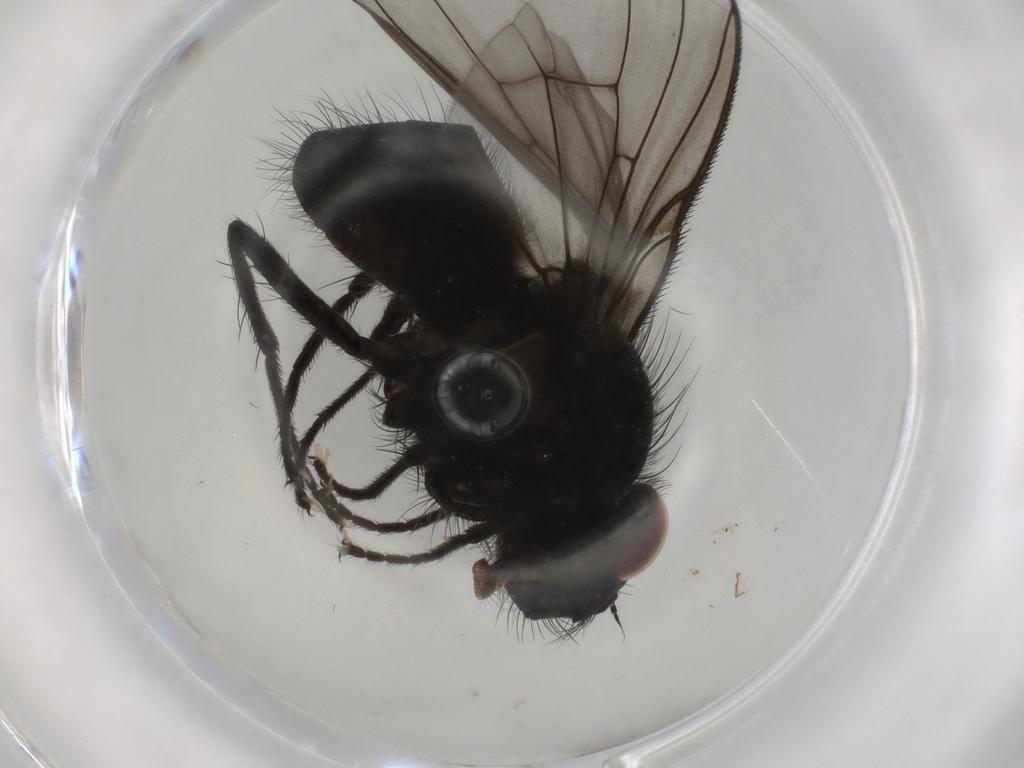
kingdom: Animalia
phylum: Arthropoda
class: Insecta
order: Diptera
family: Muscidae
